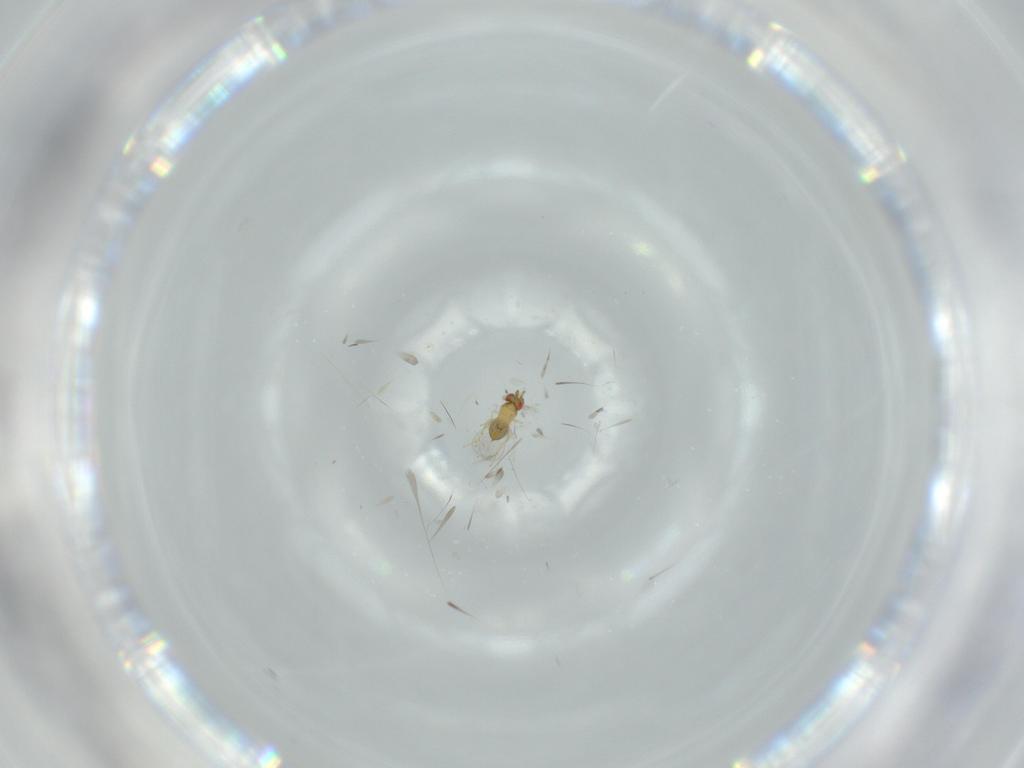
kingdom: Animalia
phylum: Arthropoda
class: Insecta
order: Hymenoptera
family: Trichogrammatidae
